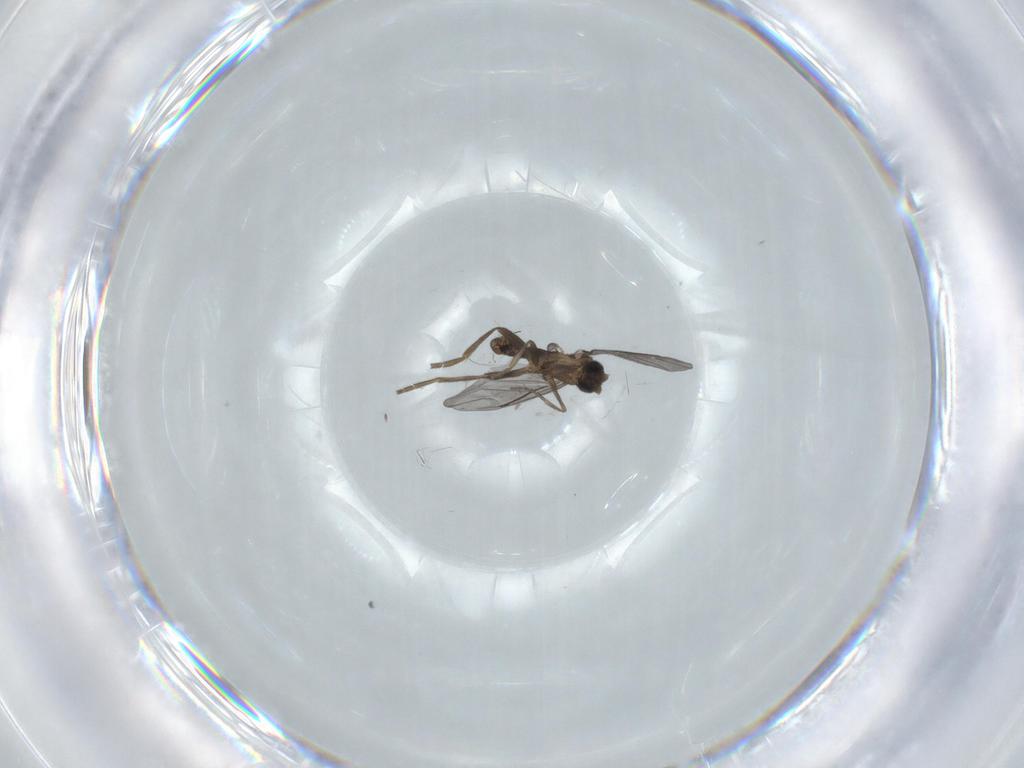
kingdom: Animalia
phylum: Arthropoda
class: Insecta
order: Diptera
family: Ceratopogonidae
